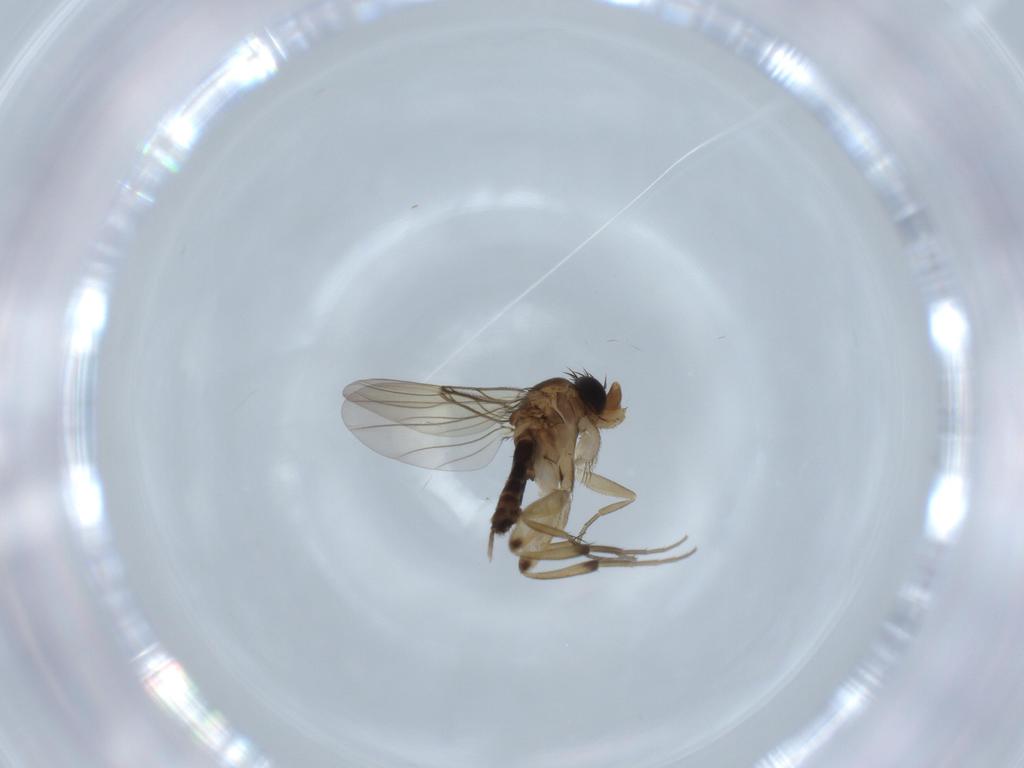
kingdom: Animalia
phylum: Arthropoda
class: Insecta
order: Diptera
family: Phoridae
